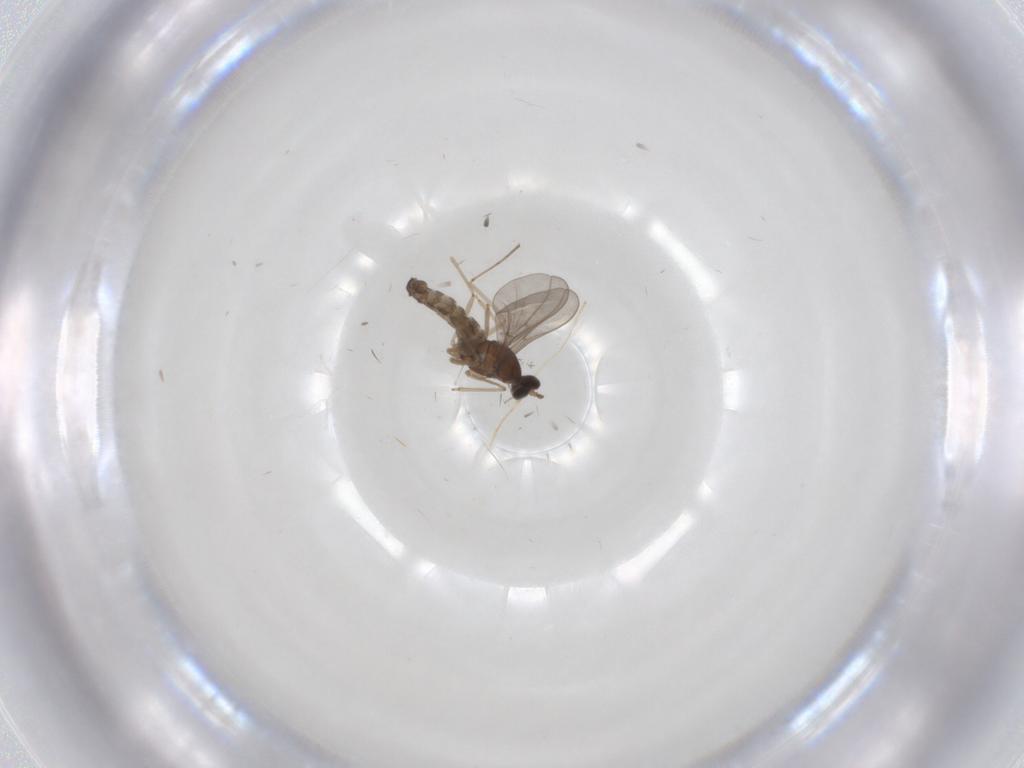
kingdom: Animalia
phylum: Arthropoda
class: Insecta
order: Diptera
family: Cecidomyiidae
